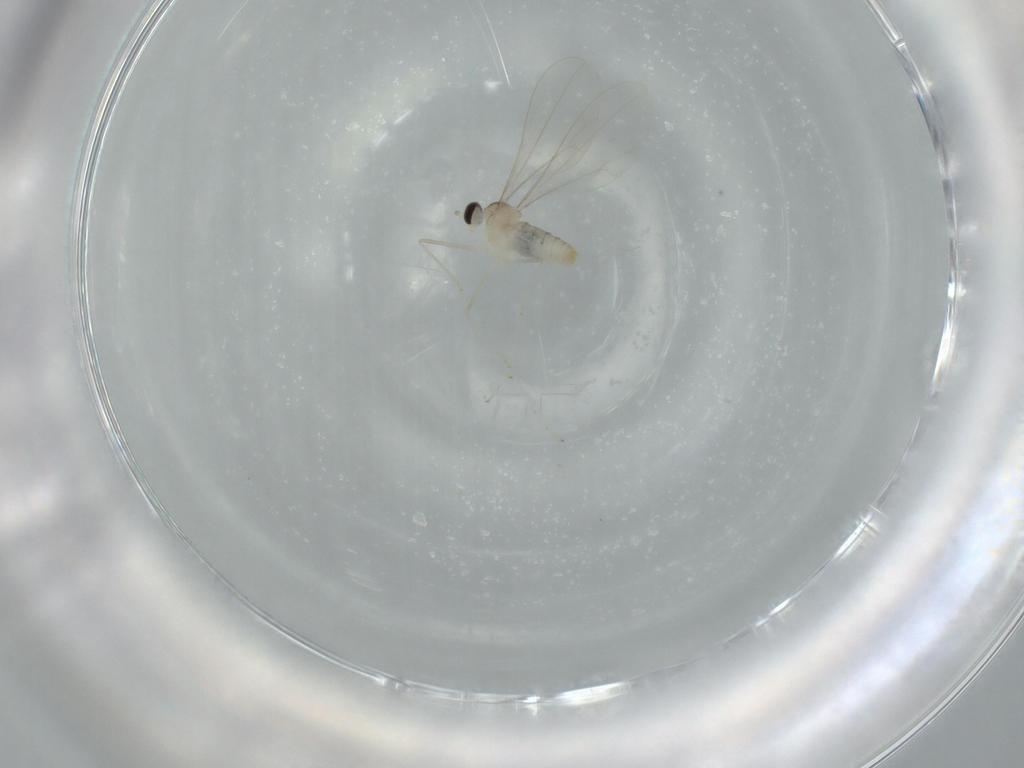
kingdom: Animalia
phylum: Arthropoda
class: Insecta
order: Diptera
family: Cecidomyiidae
